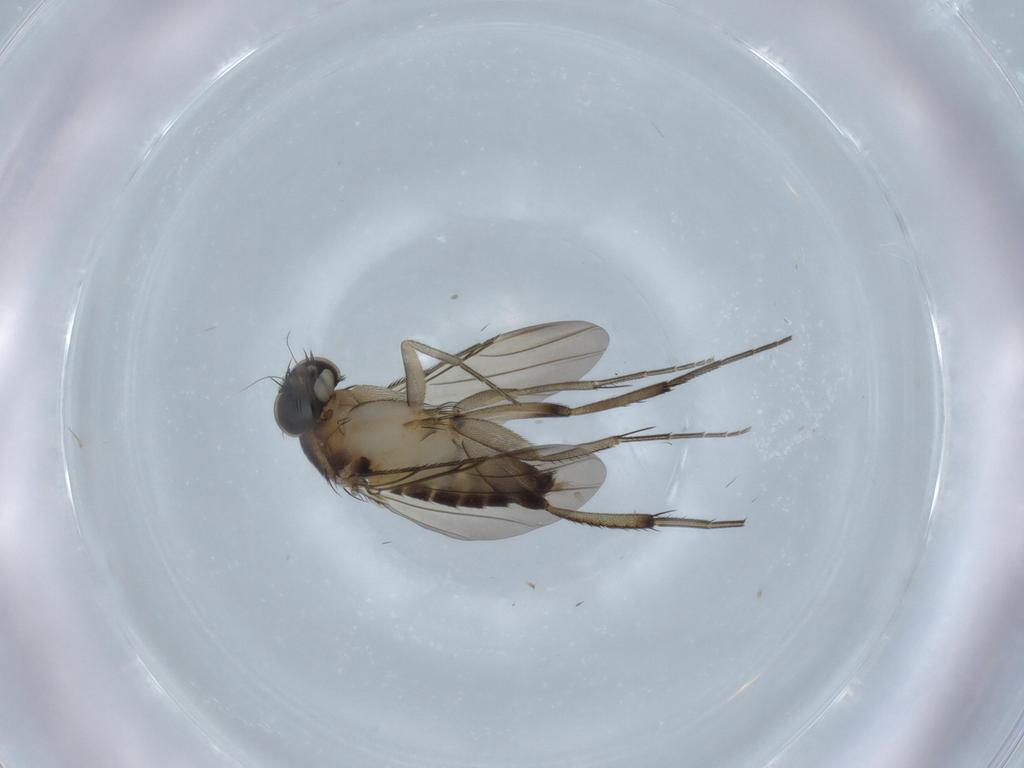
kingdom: Animalia
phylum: Arthropoda
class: Insecta
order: Diptera
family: Phoridae
